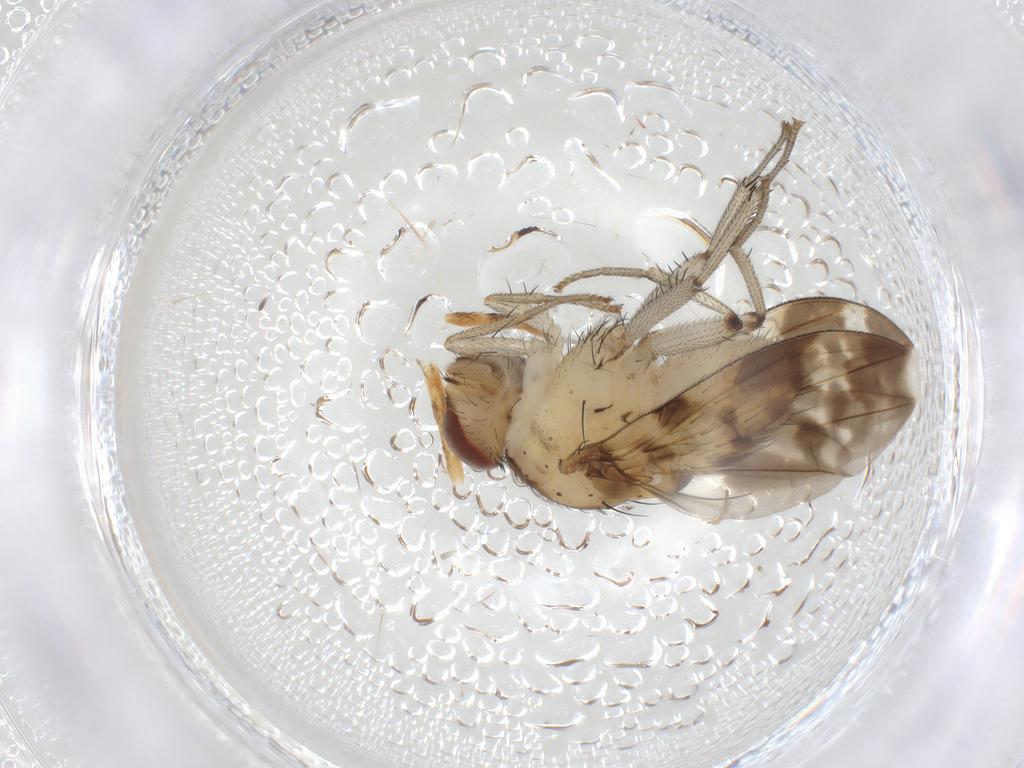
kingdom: Animalia
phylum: Arthropoda
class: Insecta
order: Lepidoptera
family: Gelechiidae
